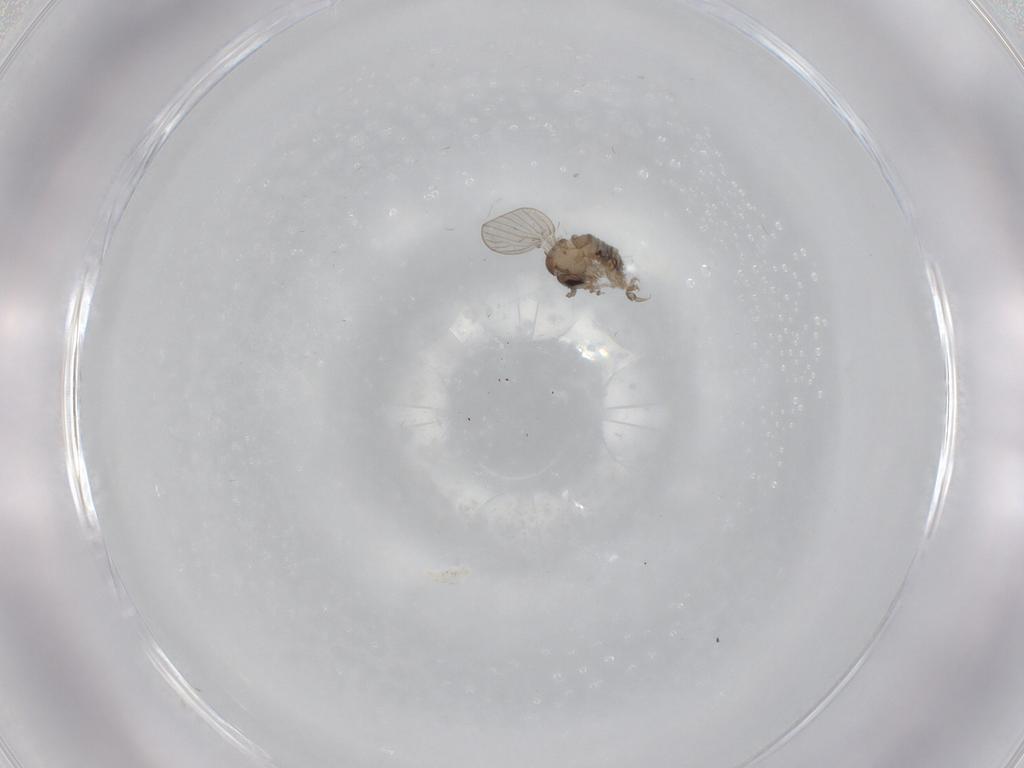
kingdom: Animalia
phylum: Arthropoda
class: Insecta
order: Diptera
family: Psychodidae
